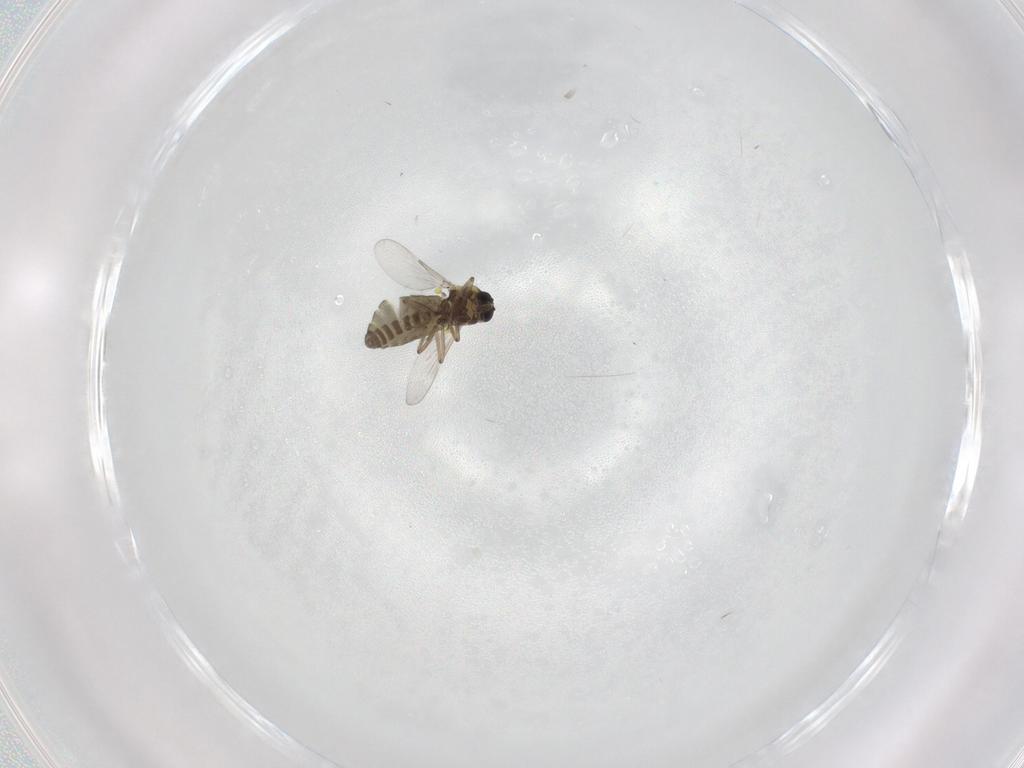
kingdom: Animalia
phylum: Arthropoda
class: Insecta
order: Diptera
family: Ceratopogonidae
